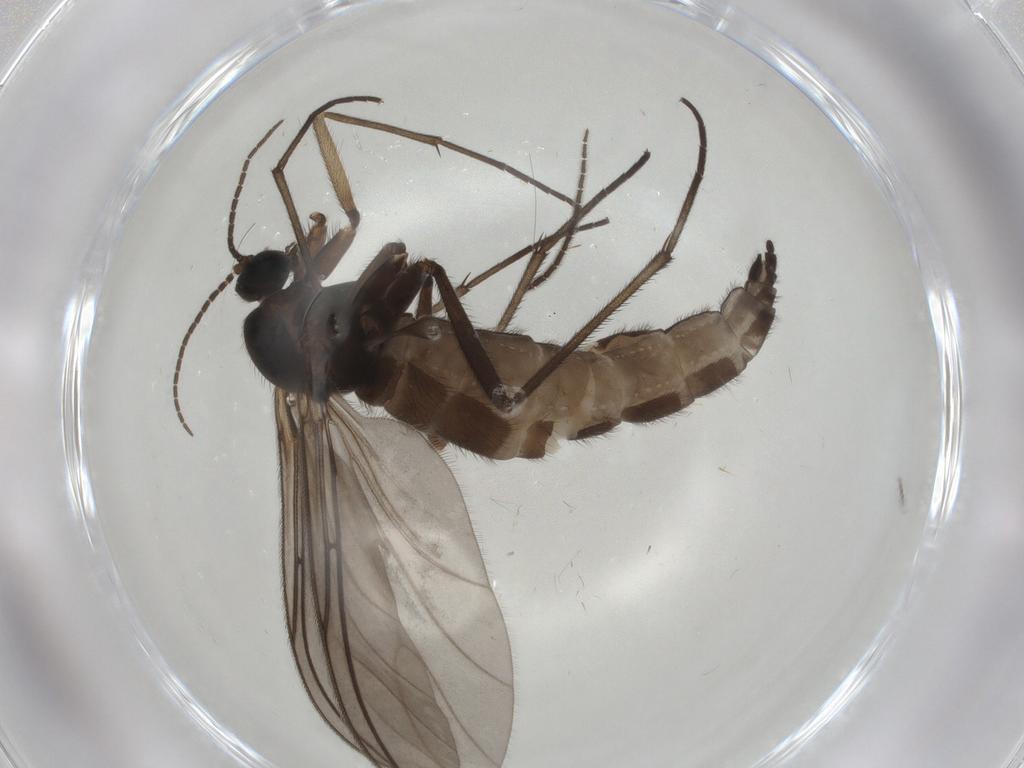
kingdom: Animalia
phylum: Arthropoda
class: Insecta
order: Diptera
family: Sciaridae
